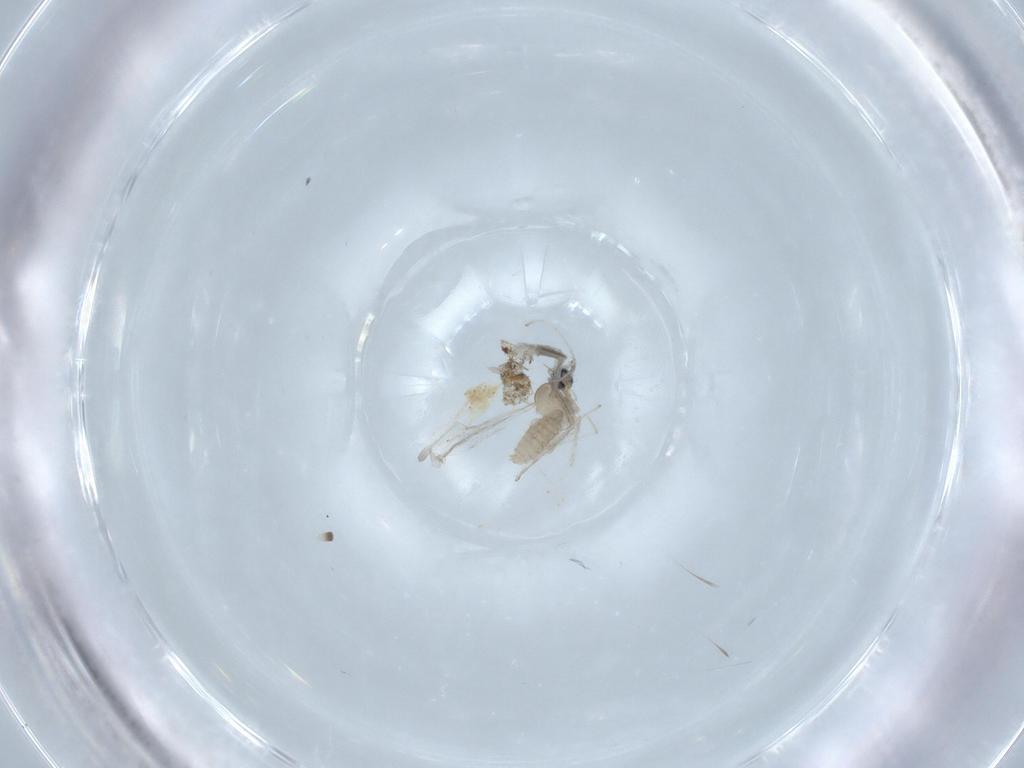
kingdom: Animalia
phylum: Arthropoda
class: Insecta
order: Diptera
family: Cecidomyiidae
